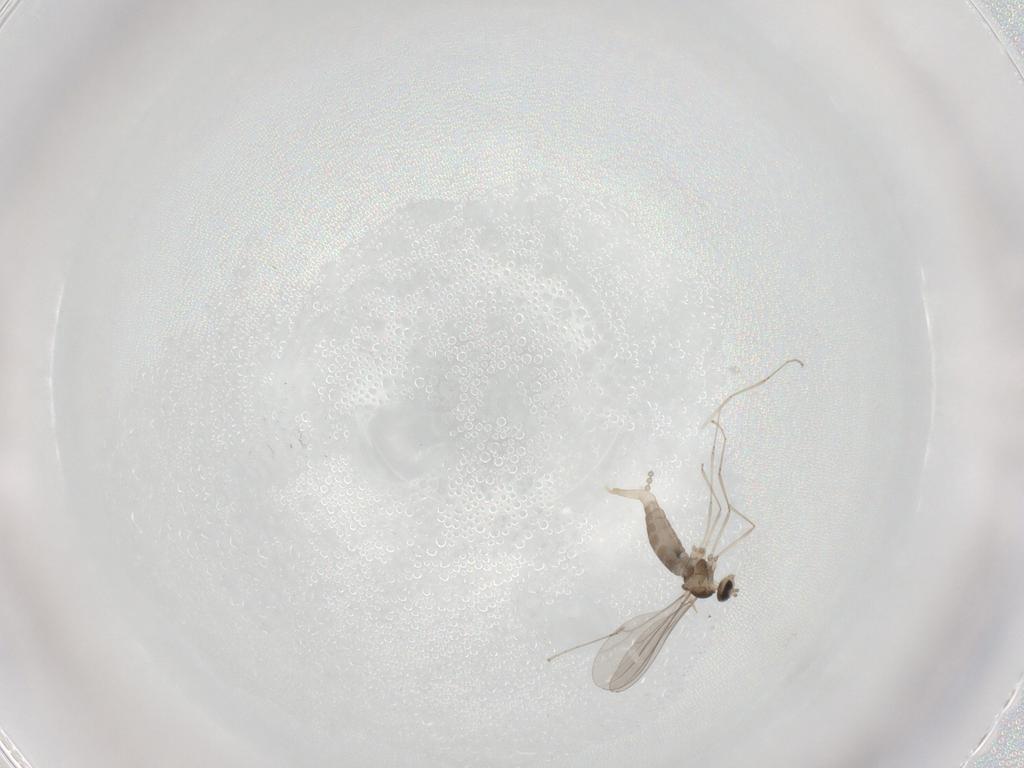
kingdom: Animalia
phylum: Arthropoda
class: Insecta
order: Diptera
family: Cecidomyiidae
